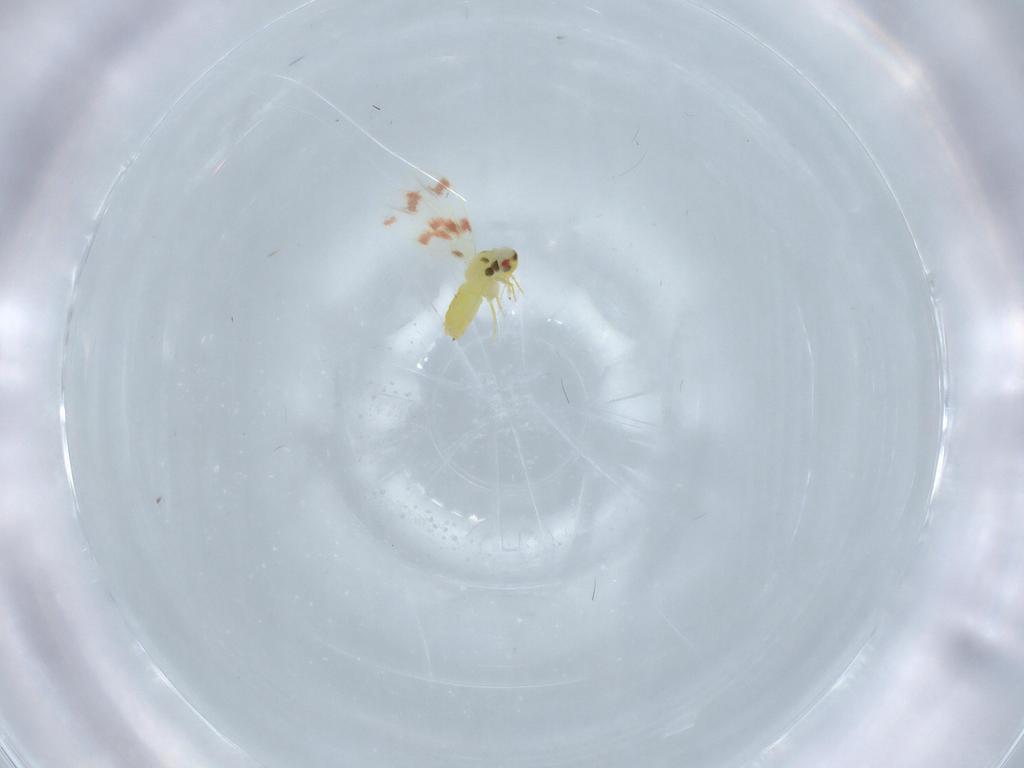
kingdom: Animalia
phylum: Arthropoda
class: Insecta
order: Hemiptera
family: Aleyrodidae
